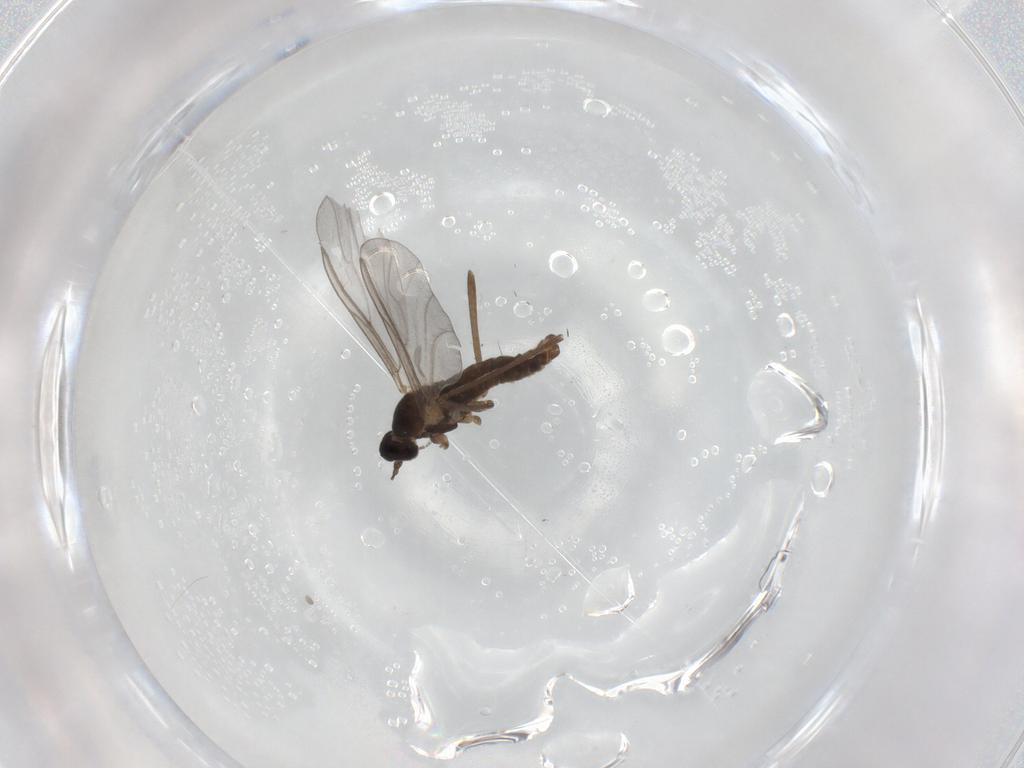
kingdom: Animalia
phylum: Arthropoda
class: Insecta
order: Diptera
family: Cecidomyiidae
